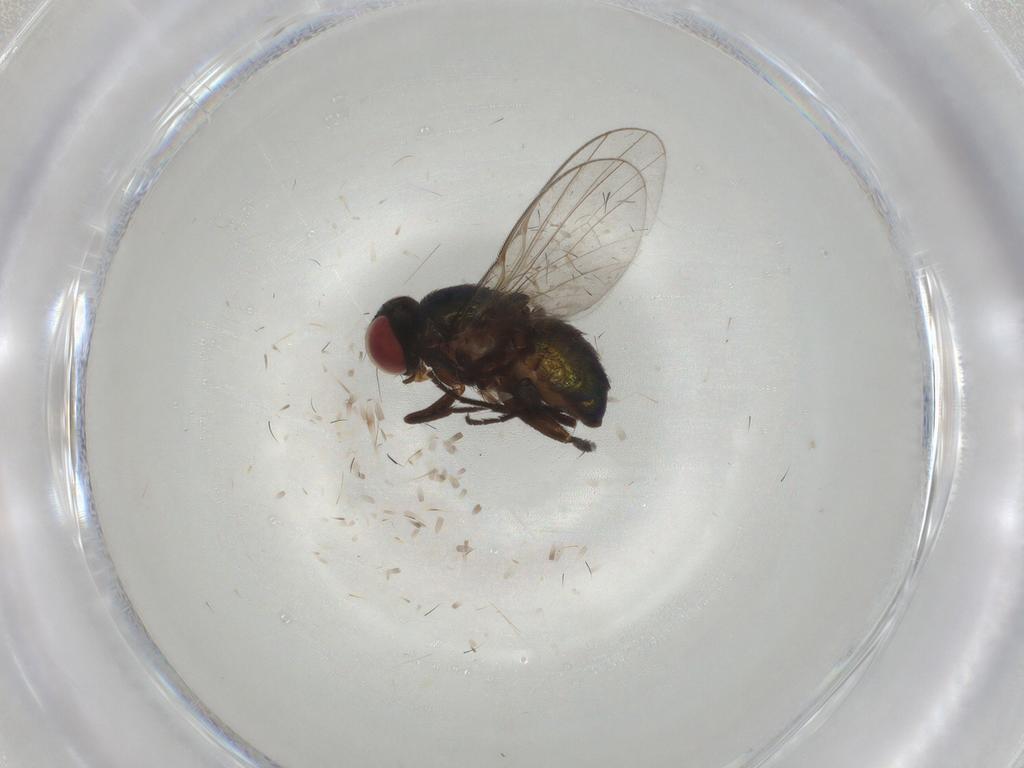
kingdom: Animalia
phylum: Arthropoda
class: Insecta
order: Diptera
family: Agromyzidae
